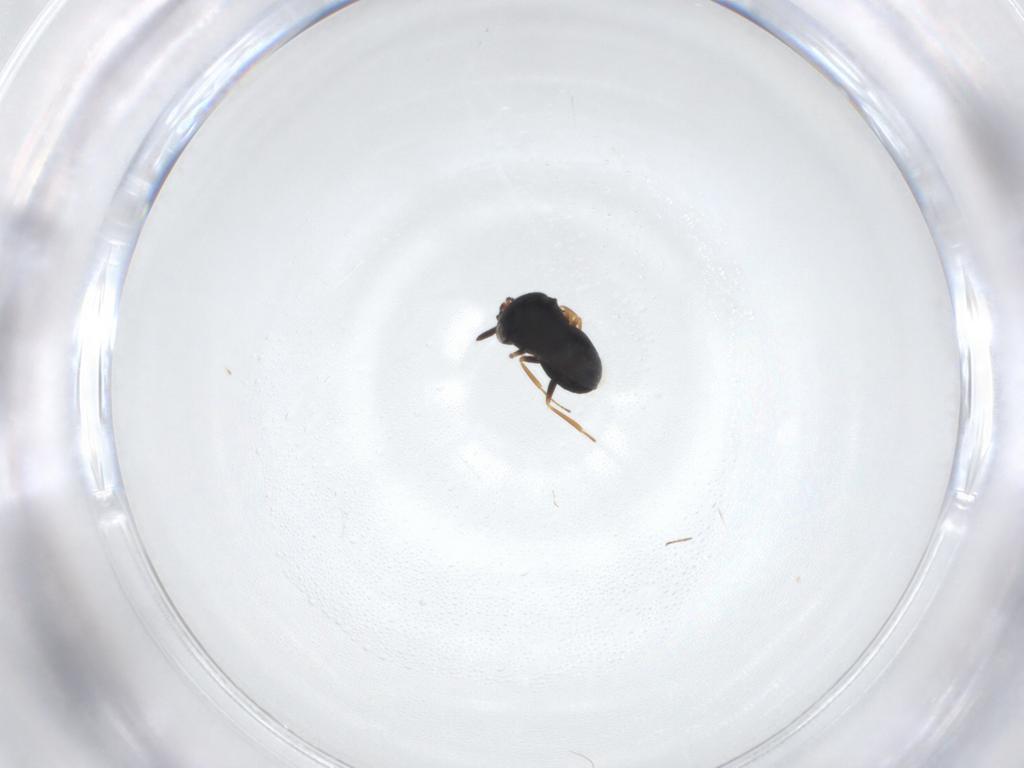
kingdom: Animalia
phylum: Arthropoda
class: Insecta
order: Hymenoptera
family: Scelionidae
